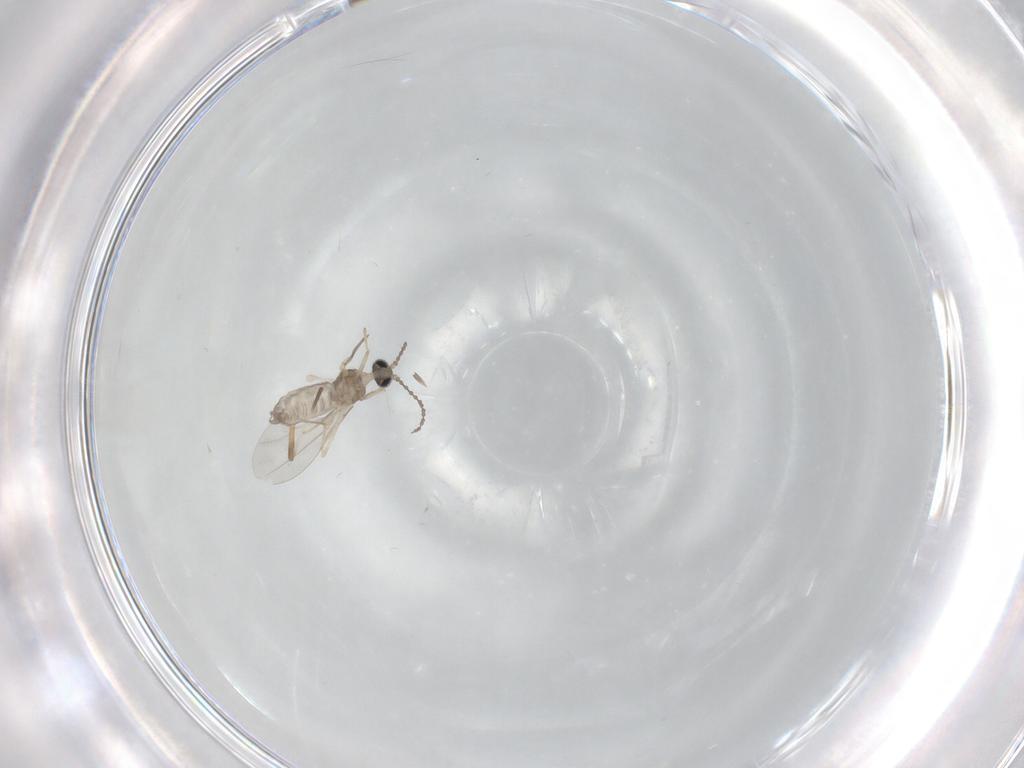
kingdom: Animalia
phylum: Arthropoda
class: Insecta
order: Diptera
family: Cecidomyiidae
